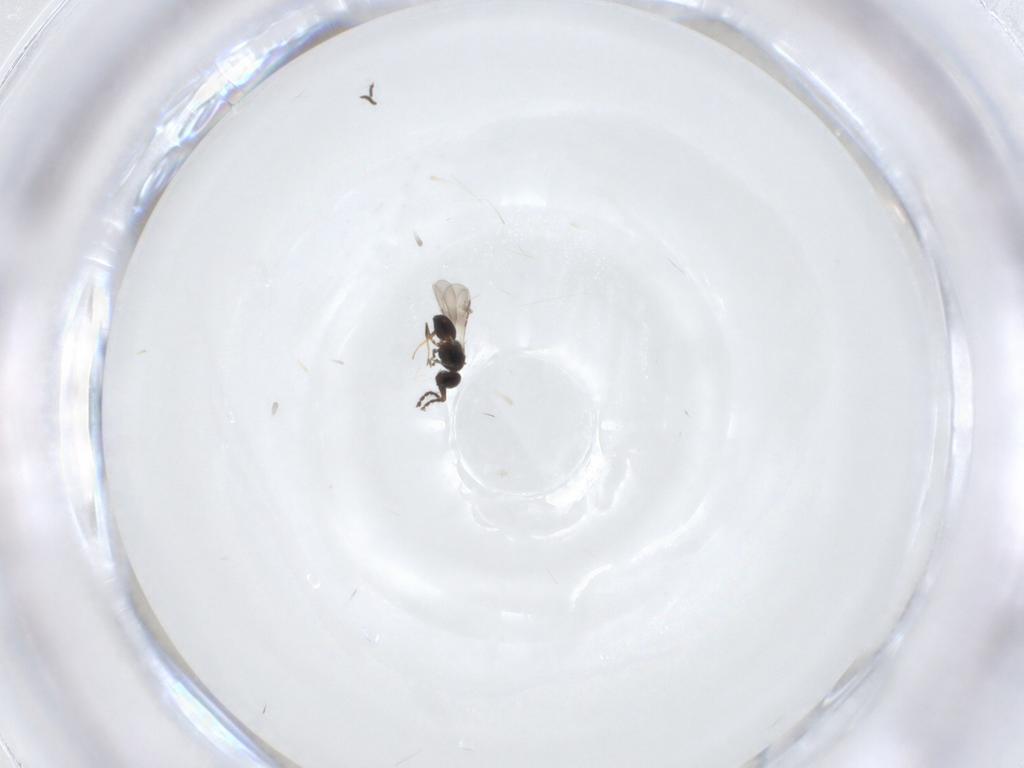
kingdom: Animalia
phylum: Arthropoda
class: Insecta
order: Hymenoptera
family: Ceraphronidae
